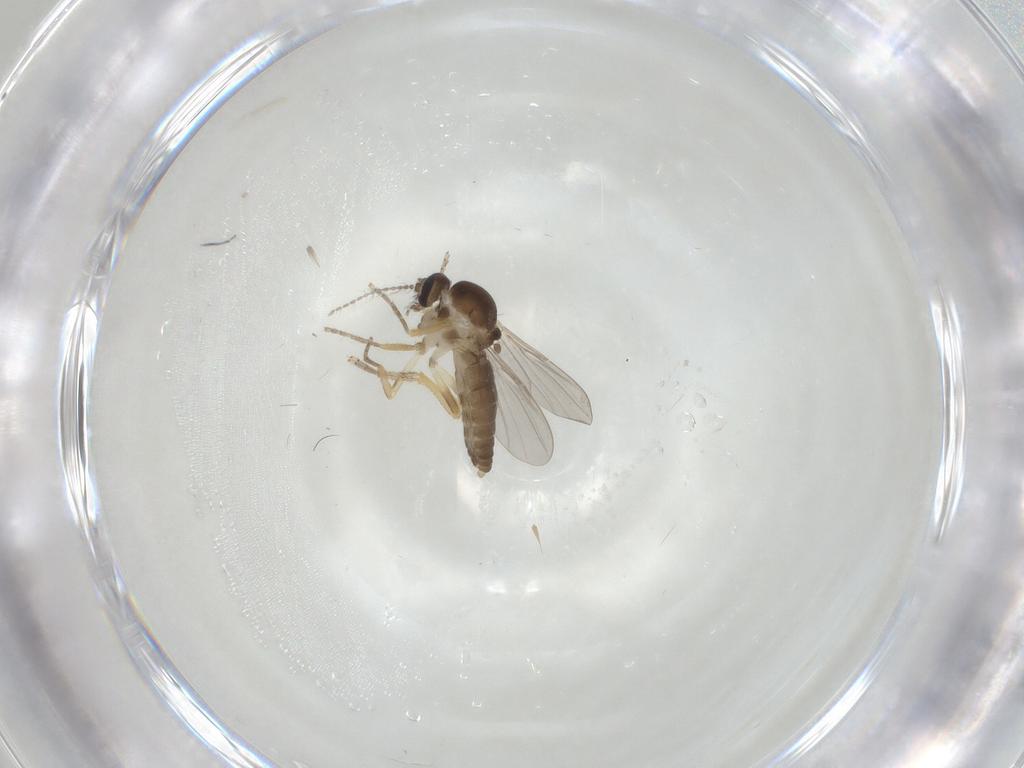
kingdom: Animalia
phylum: Arthropoda
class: Insecta
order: Diptera
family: Ceratopogonidae
